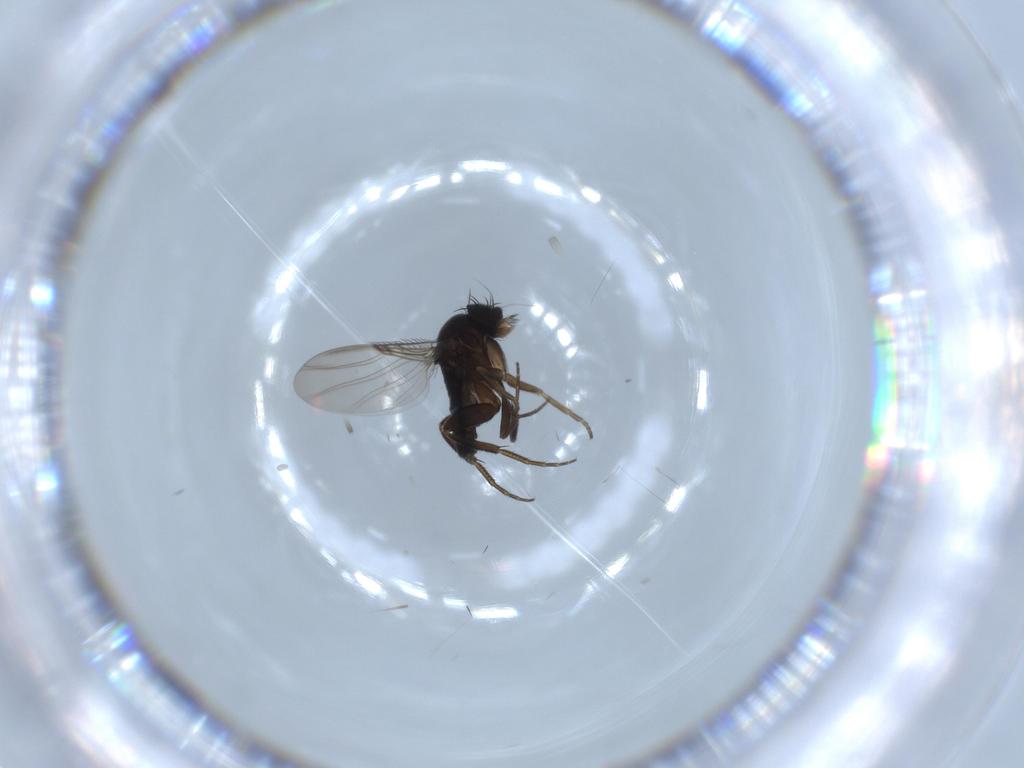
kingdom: Animalia
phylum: Arthropoda
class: Insecta
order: Diptera
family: Phoridae
